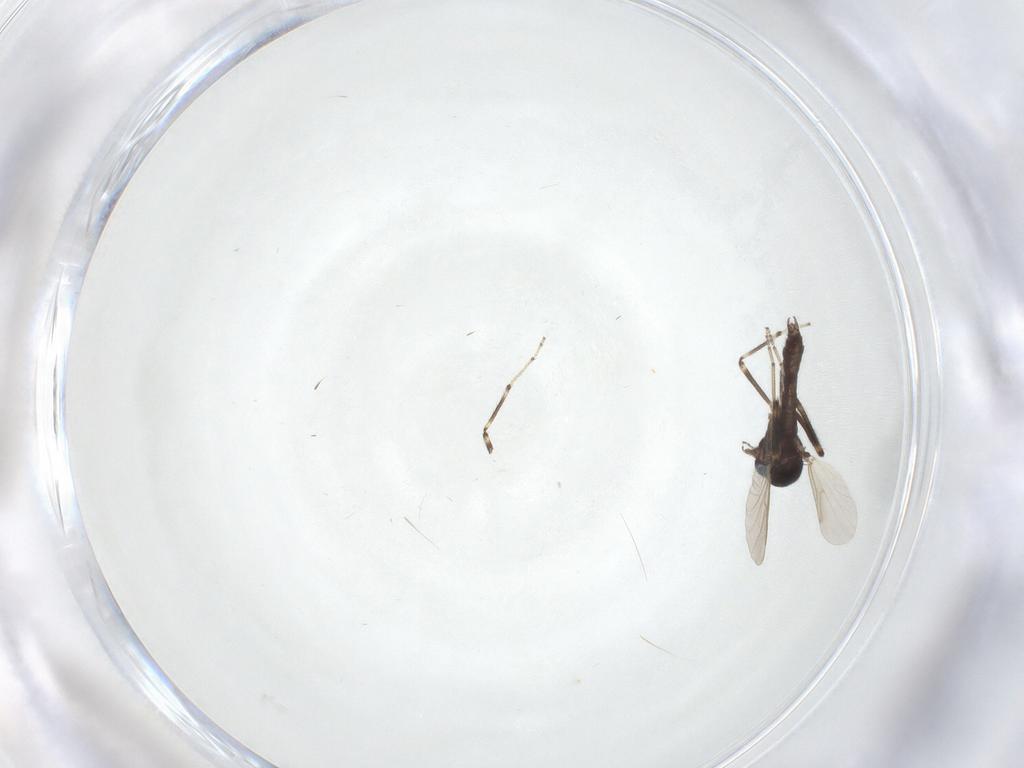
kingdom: Animalia
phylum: Arthropoda
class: Insecta
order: Diptera
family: Ceratopogonidae
